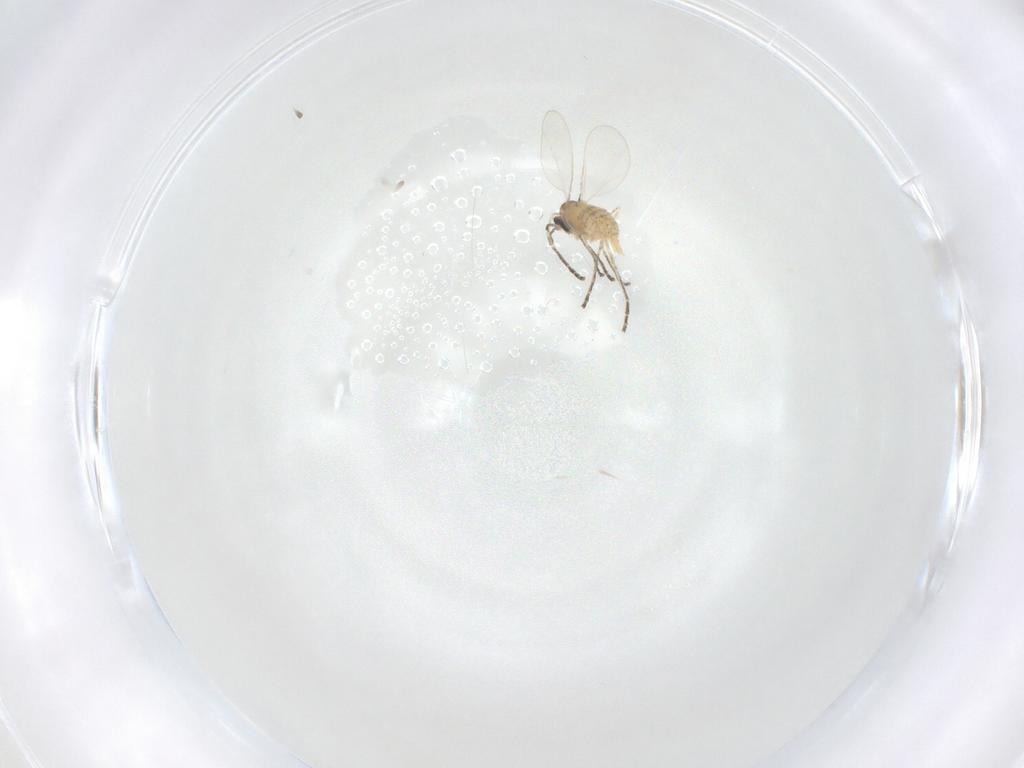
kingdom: Animalia
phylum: Arthropoda
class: Insecta
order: Diptera
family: Cecidomyiidae
